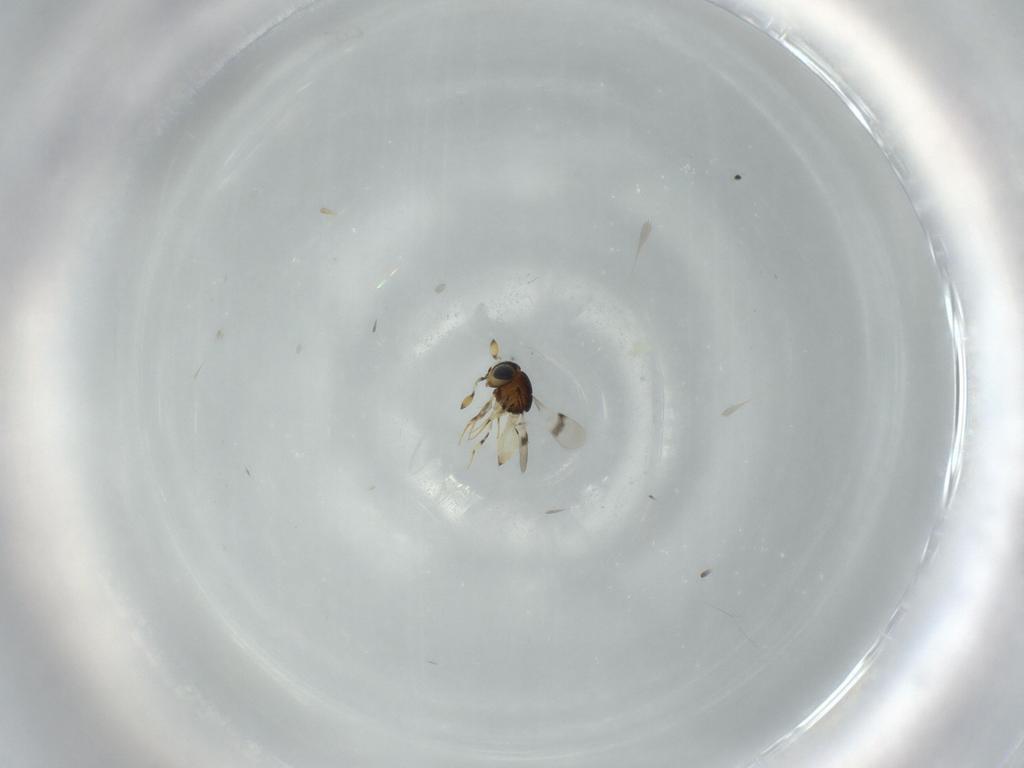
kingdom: Animalia
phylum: Arthropoda
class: Insecta
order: Hymenoptera
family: Scelionidae
